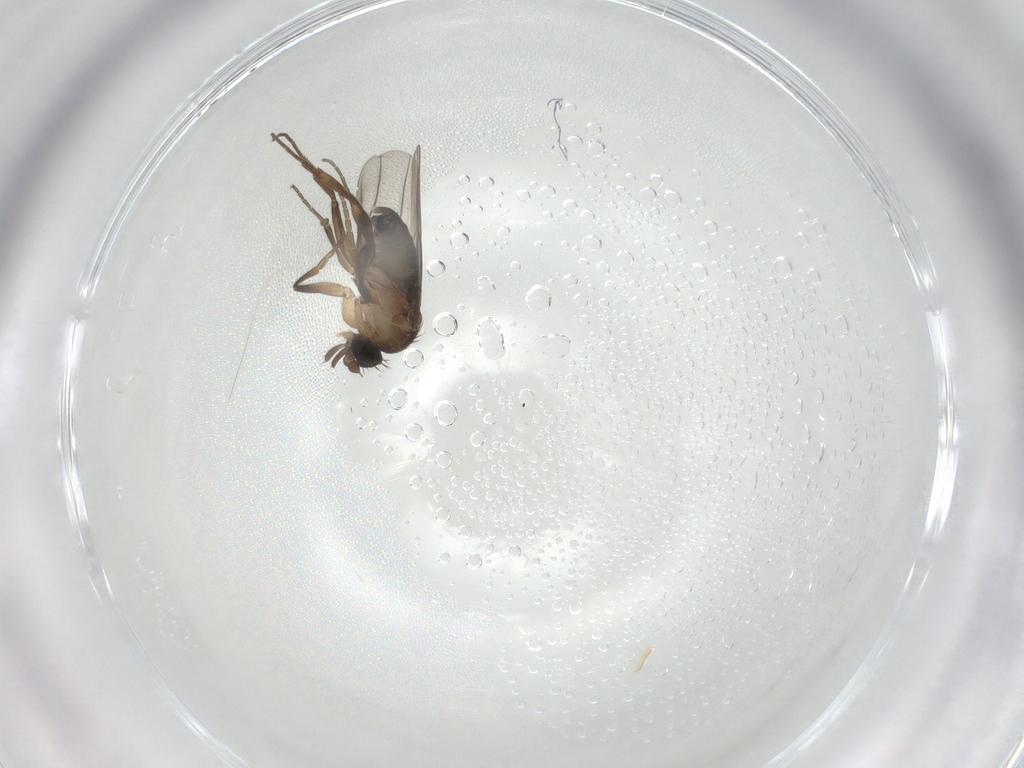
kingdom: Animalia
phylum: Arthropoda
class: Insecta
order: Diptera
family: Phoridae
